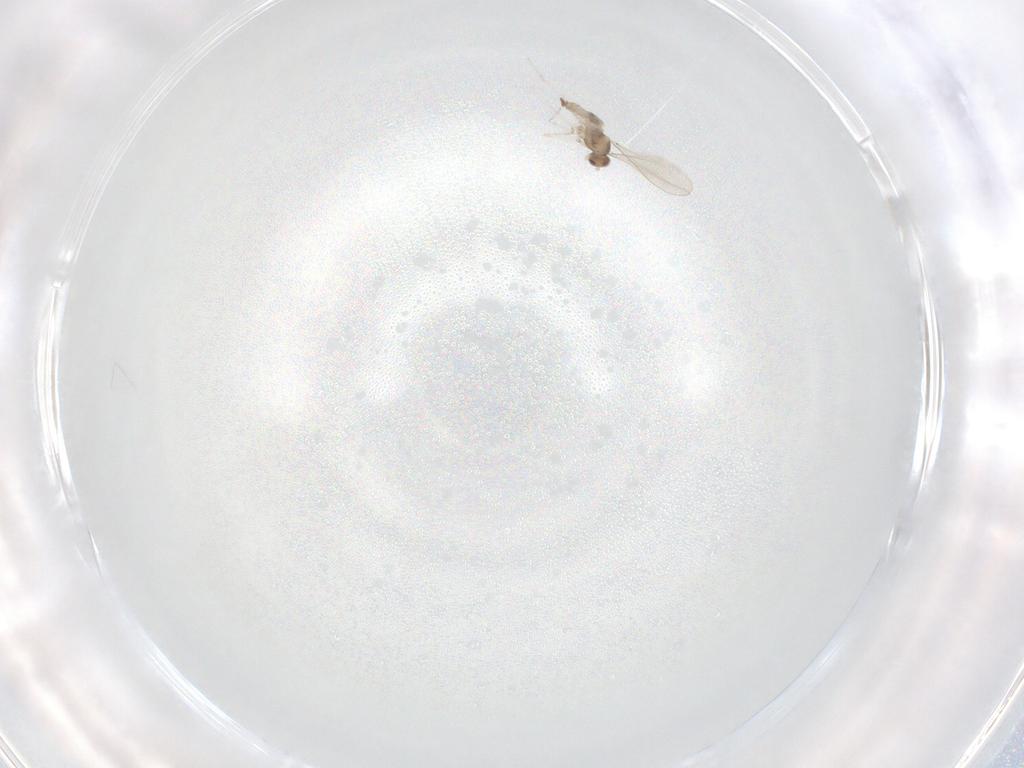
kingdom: Animalia
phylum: Arthropoda
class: Insecta
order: Diptera
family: Cecidomyiidae
